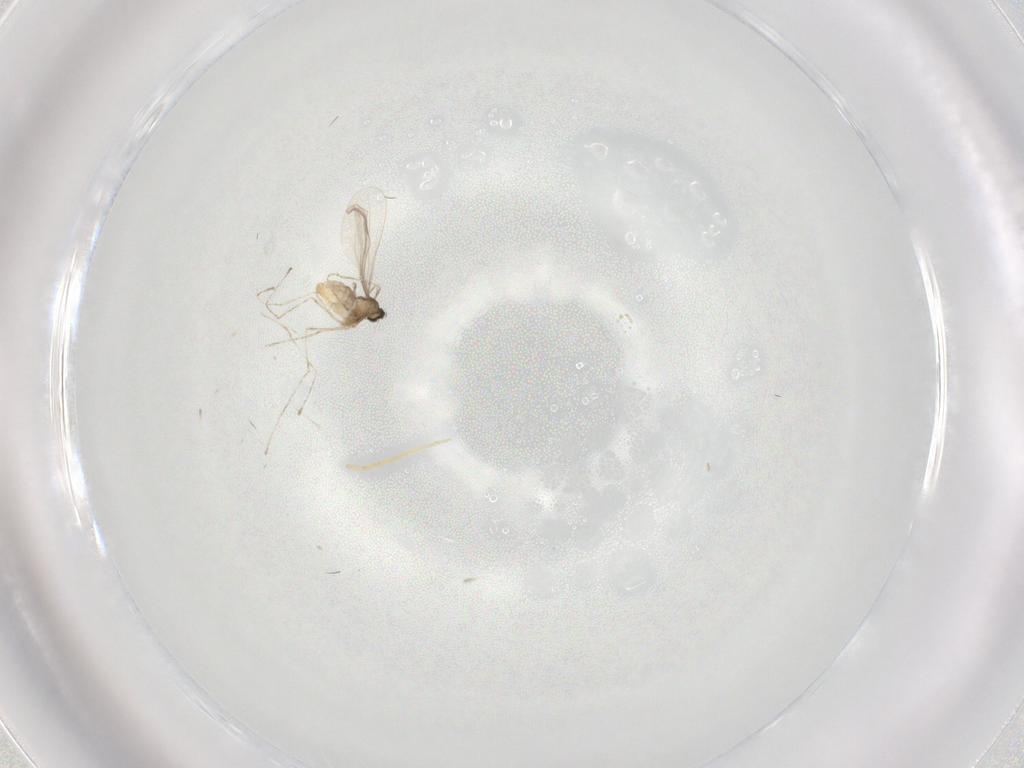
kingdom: Animalia
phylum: Arthropoda
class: Insecta
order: Diptera
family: Cecidomyiidae
